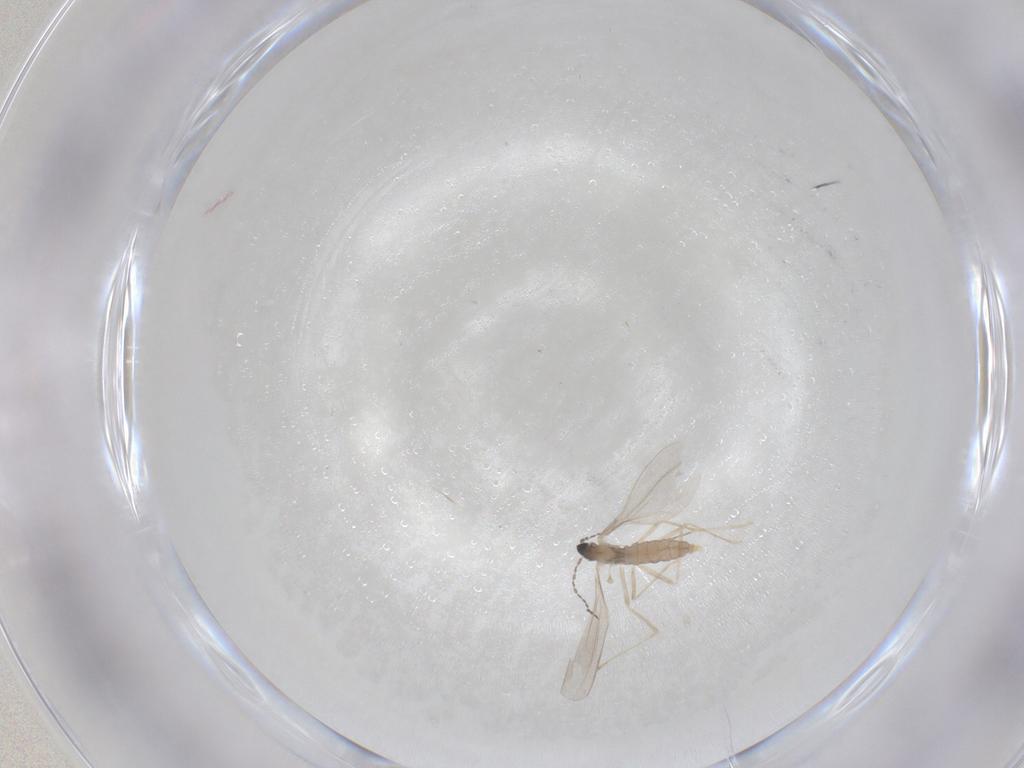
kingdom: Animalia
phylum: Arthropoda
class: Insecta
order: Diptera
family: Cecidomyiidae
